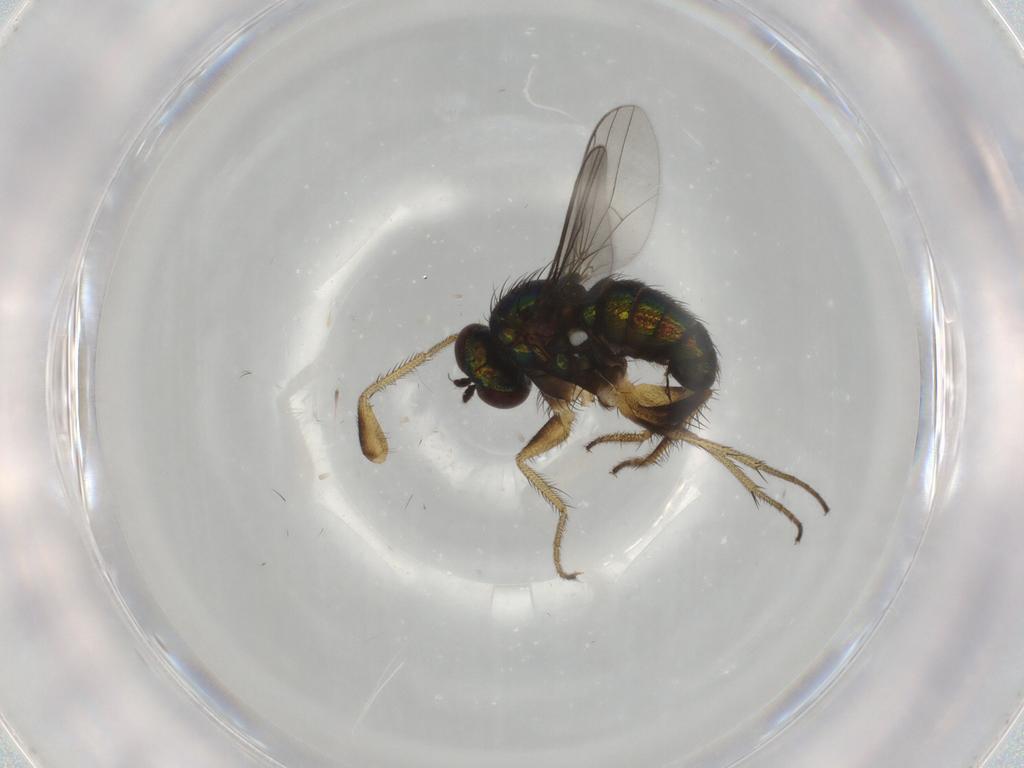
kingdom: Animalia
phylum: Arthropoda
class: Insecta
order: Diptera
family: Dolichopodidae
